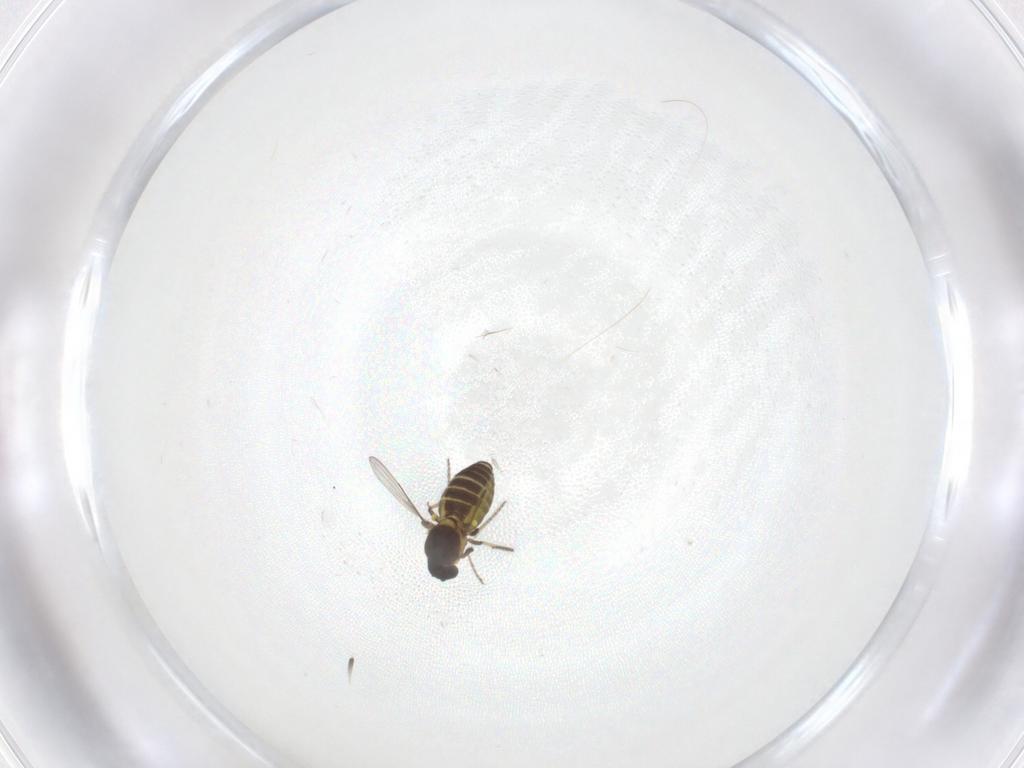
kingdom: Animalia
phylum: Arthropoda
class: Insecta
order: Diptera
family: Ceratopogonidae
